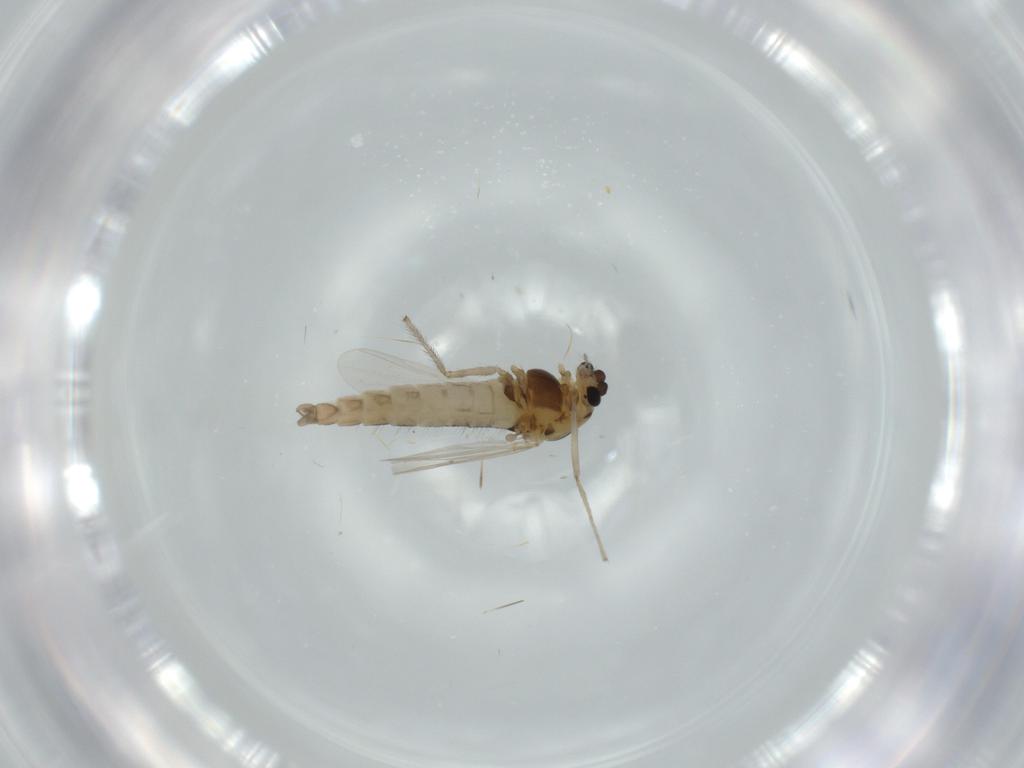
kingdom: Animalia
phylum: Arthropoda
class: Insecta
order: Diptera
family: Chironomidae
